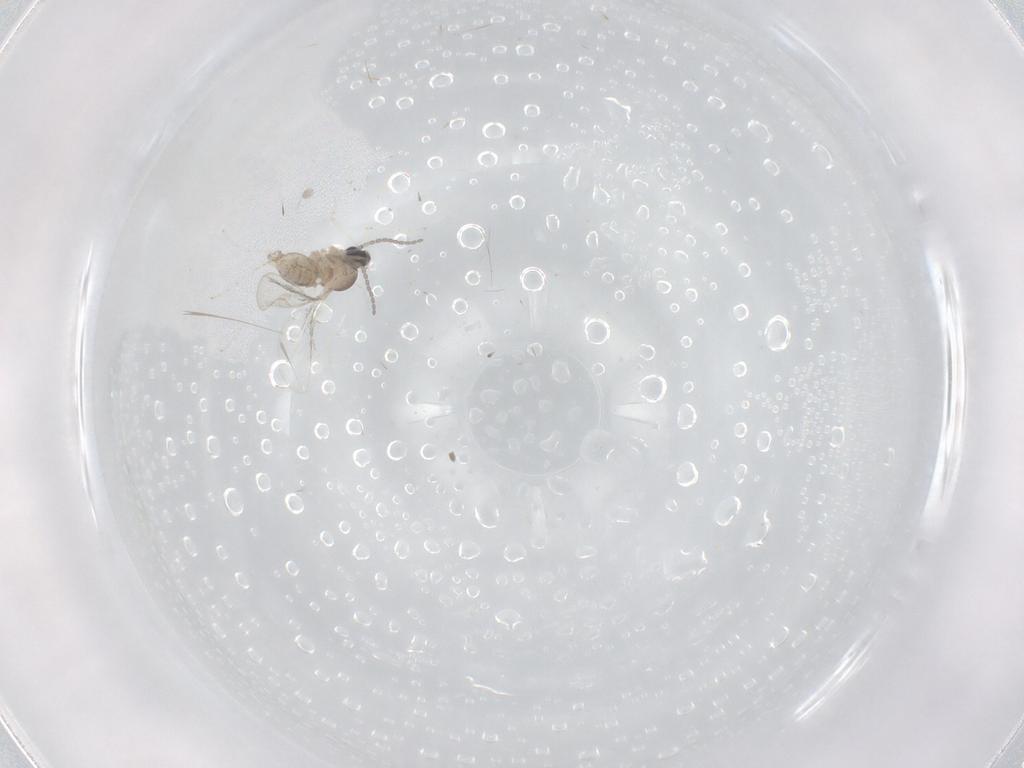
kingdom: Animalia
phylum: Arthropoda
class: Insecta
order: Diptera
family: Cecidomyiidae
